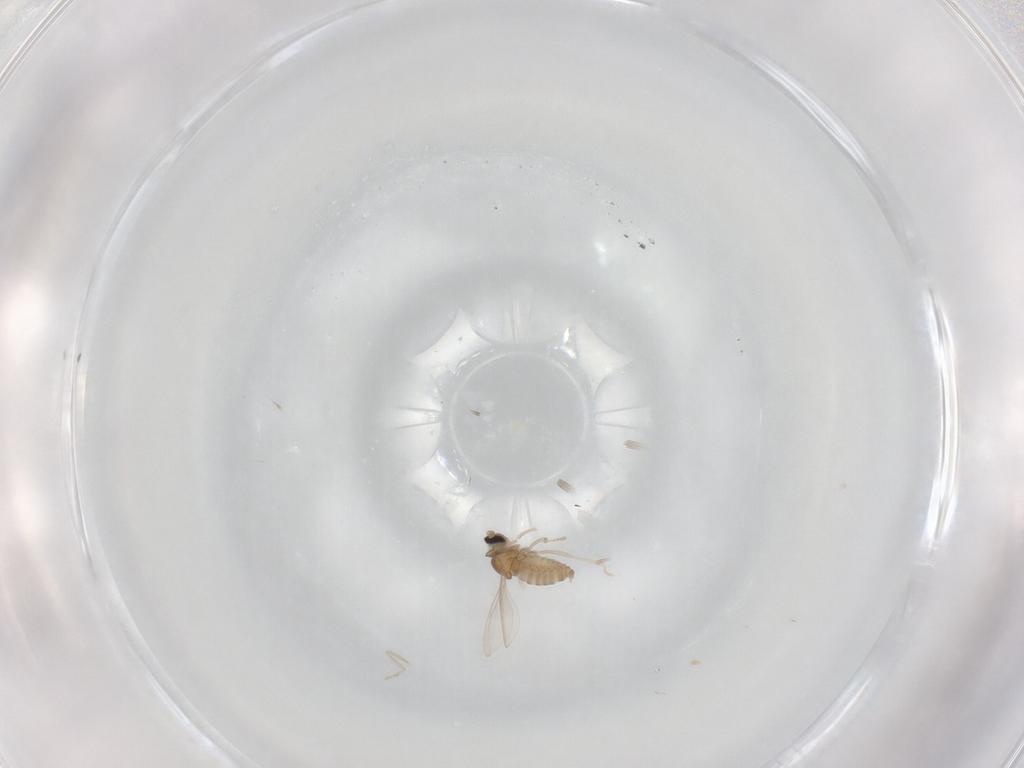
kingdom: Animalia
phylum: Arthropoda
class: Insecta
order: Diptera
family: Cecidomyiidae
